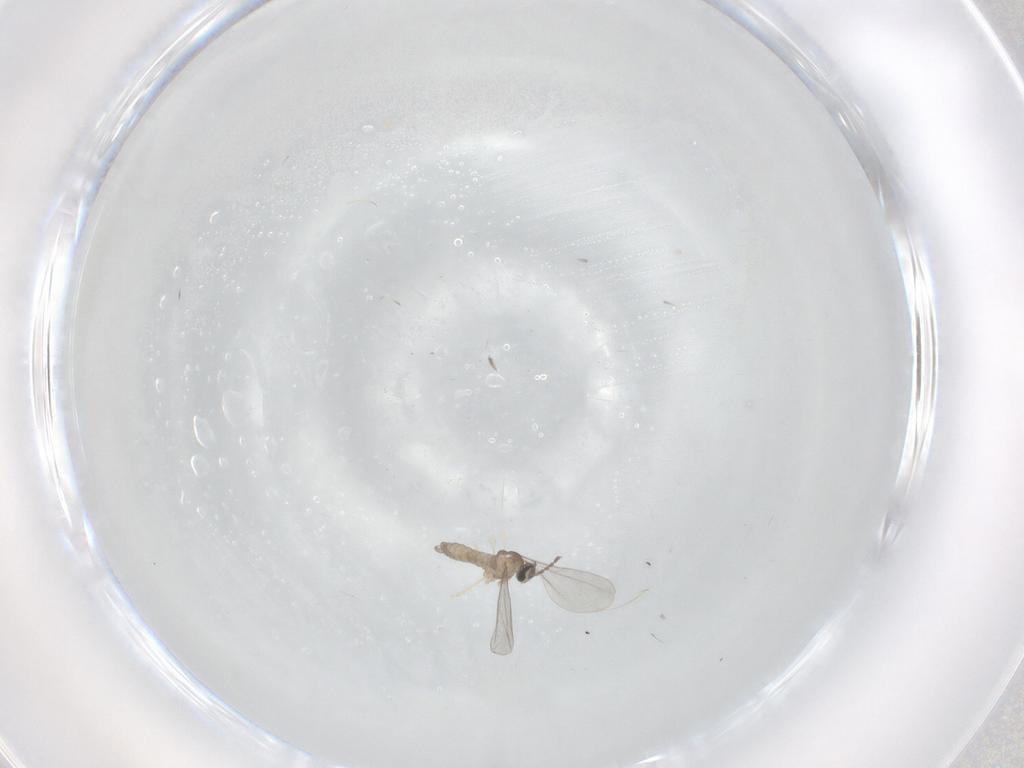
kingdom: Animalia
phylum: Arthropoda
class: Insecta
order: Diptera
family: Sciaridae
